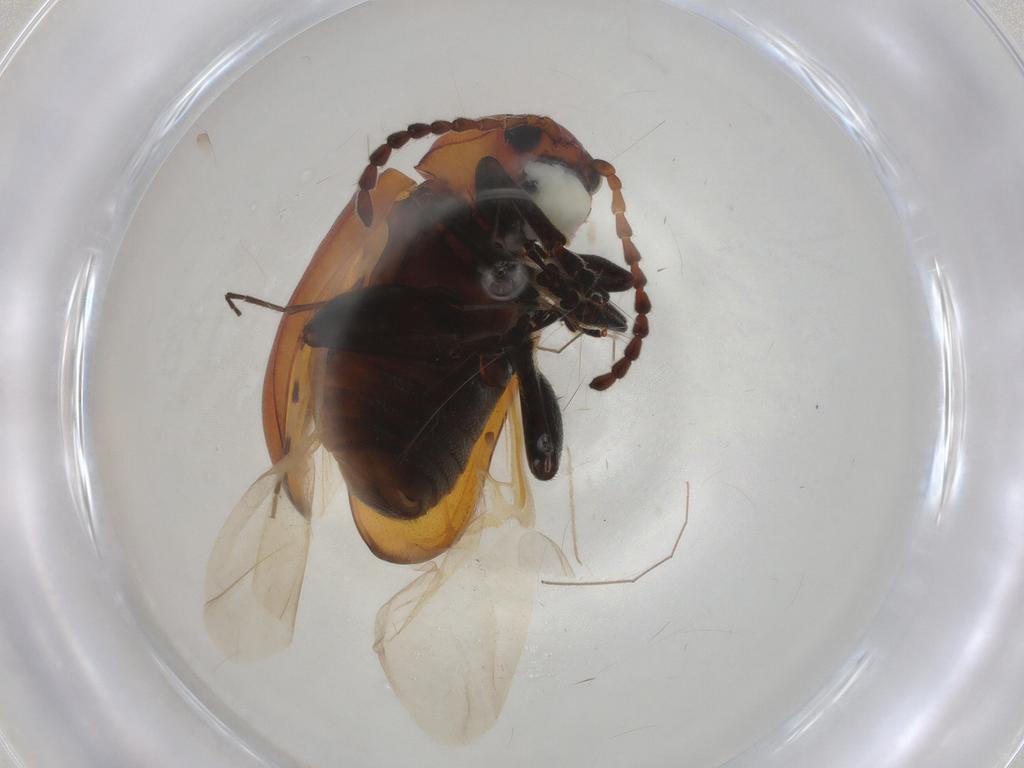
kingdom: Animalia
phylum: Arthropoda
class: Insecta
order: Coleoptera
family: Chrysomelidae
